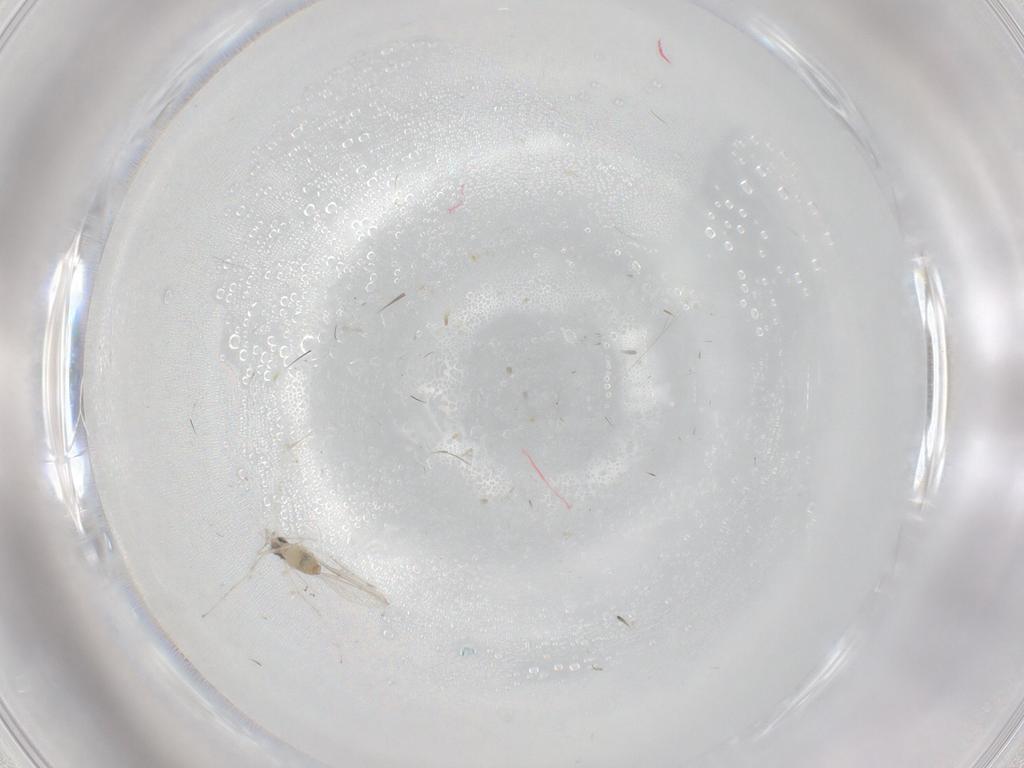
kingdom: Animalia
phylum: Arthropoda
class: Insecta
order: Diptera
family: Cecidomyiidae
